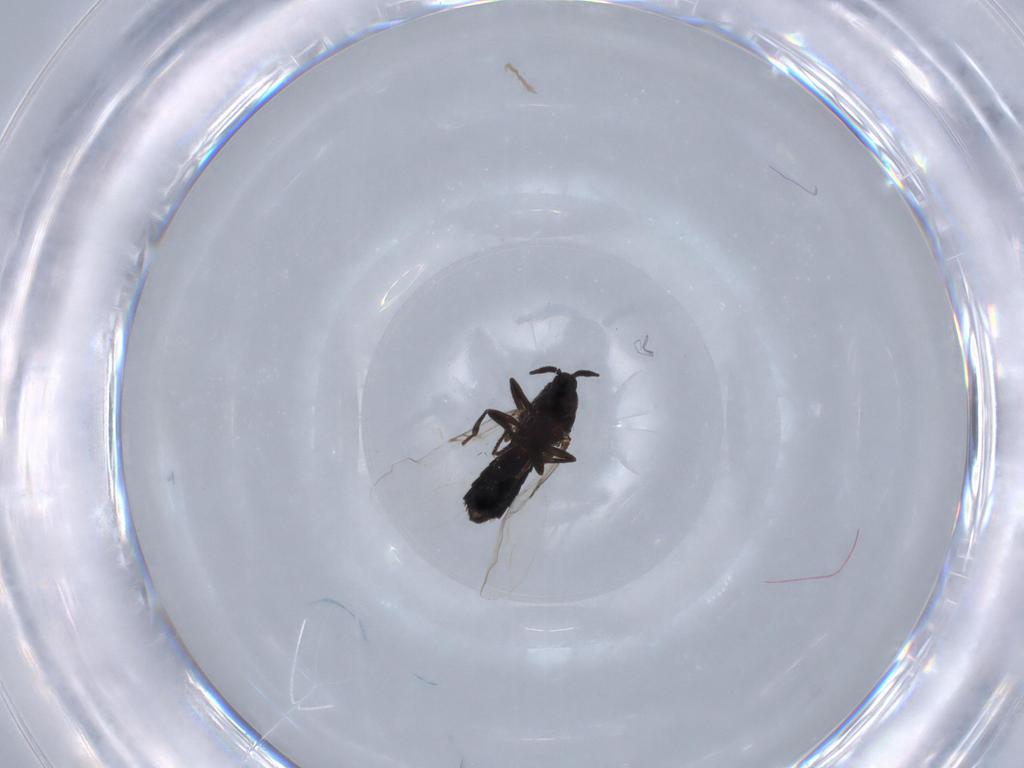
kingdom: Animalia
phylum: Arthropoda
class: Insecta
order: Diptera
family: Scatopsidae
